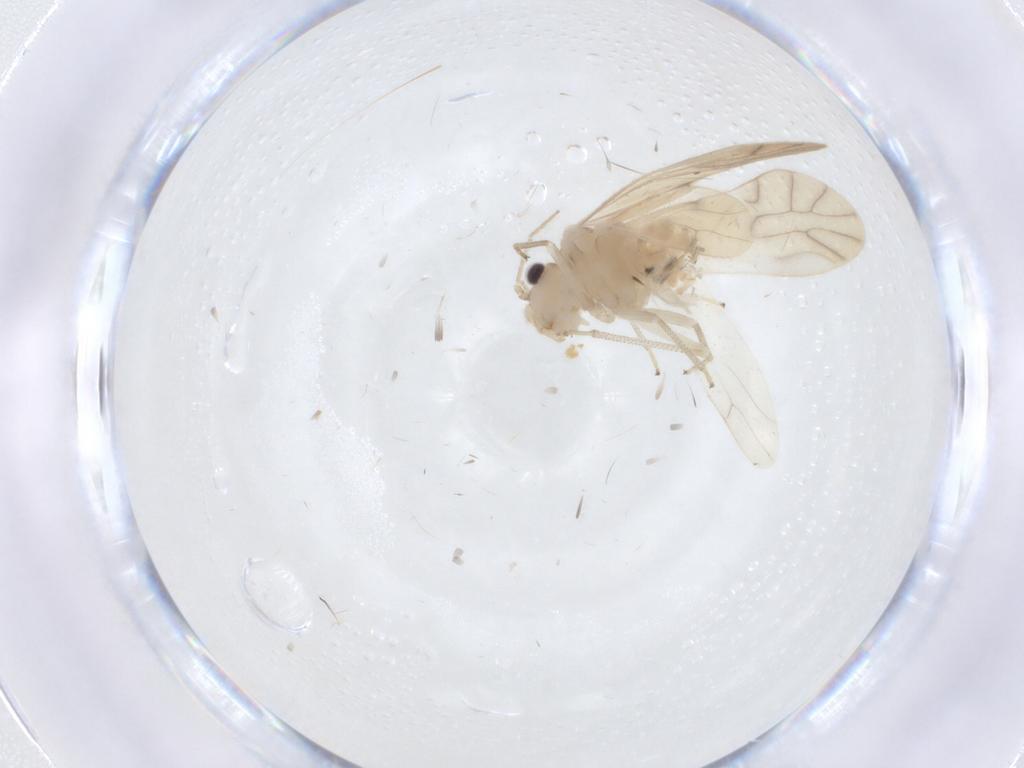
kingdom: Animalia
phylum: Arthropoda
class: Insecta
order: Psocodea
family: Caeciliusidae
